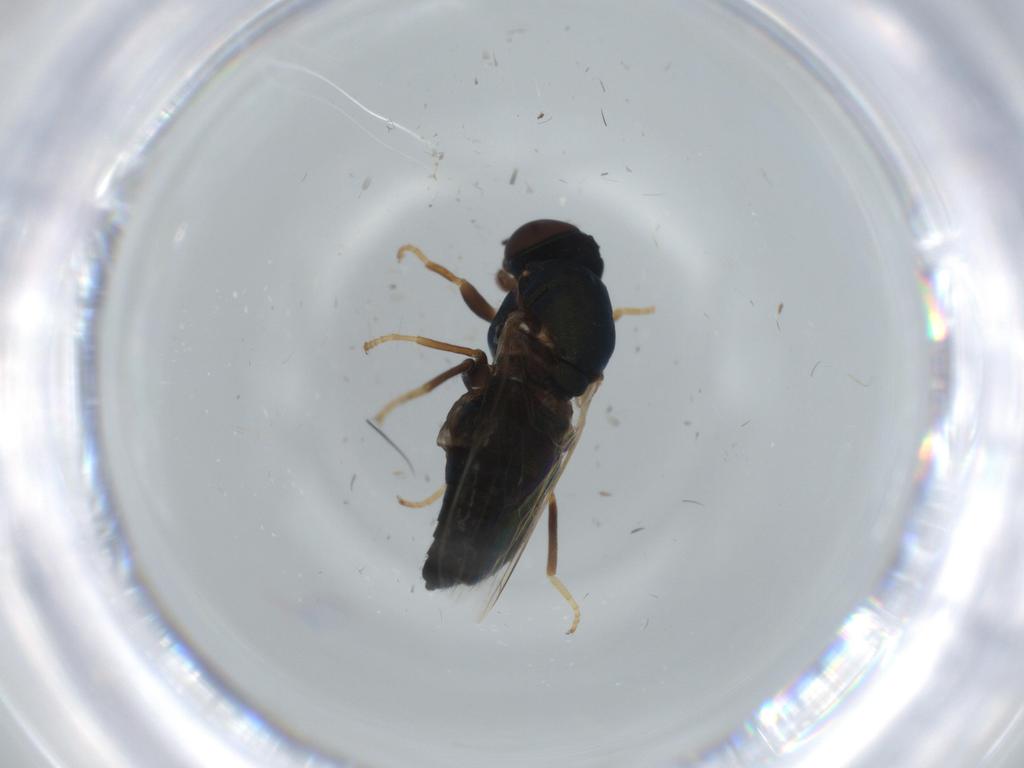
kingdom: Animalia
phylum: Arthropoda
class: Insecta
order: Diptera
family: Scenopinidae
